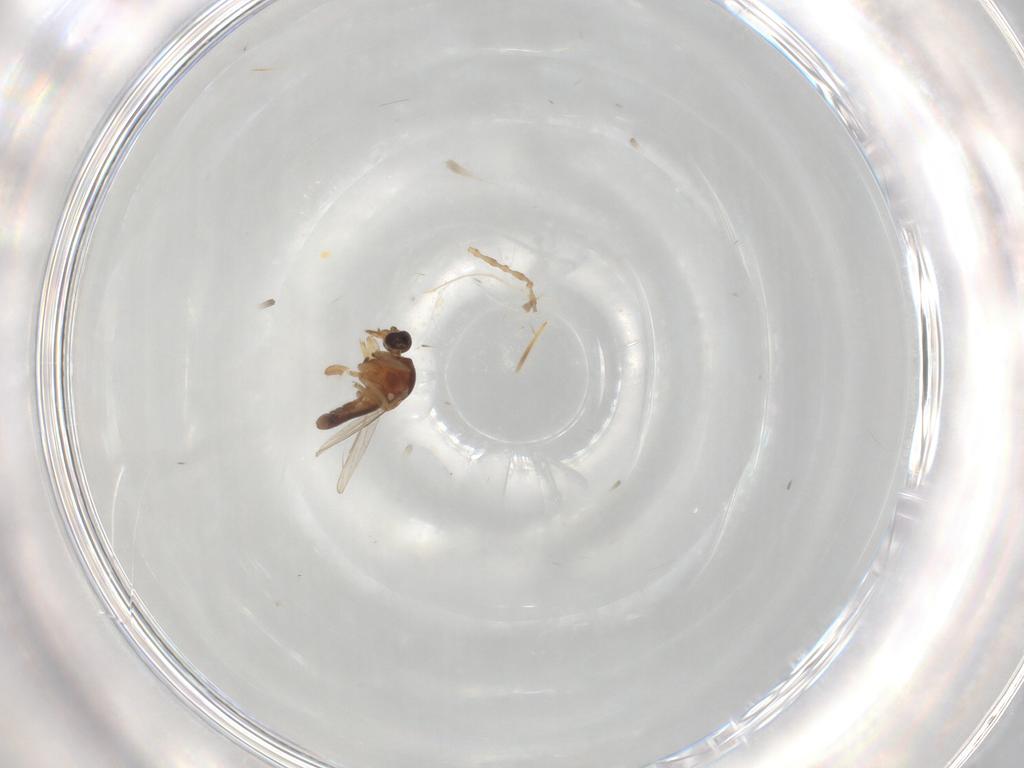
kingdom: Animalia
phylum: Arthropoda
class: Insecta
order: Diptera
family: Ceratopogonidae
